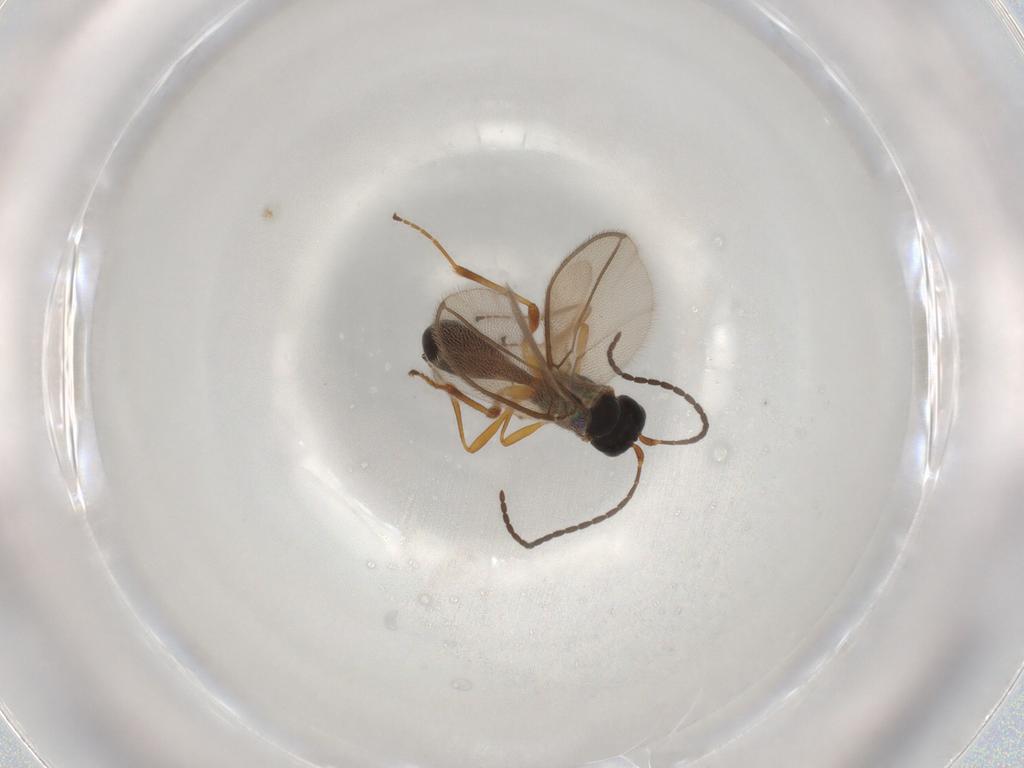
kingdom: Animalia
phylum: Arthropoda
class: Insecta
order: Hymenoptera
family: Braconidae
